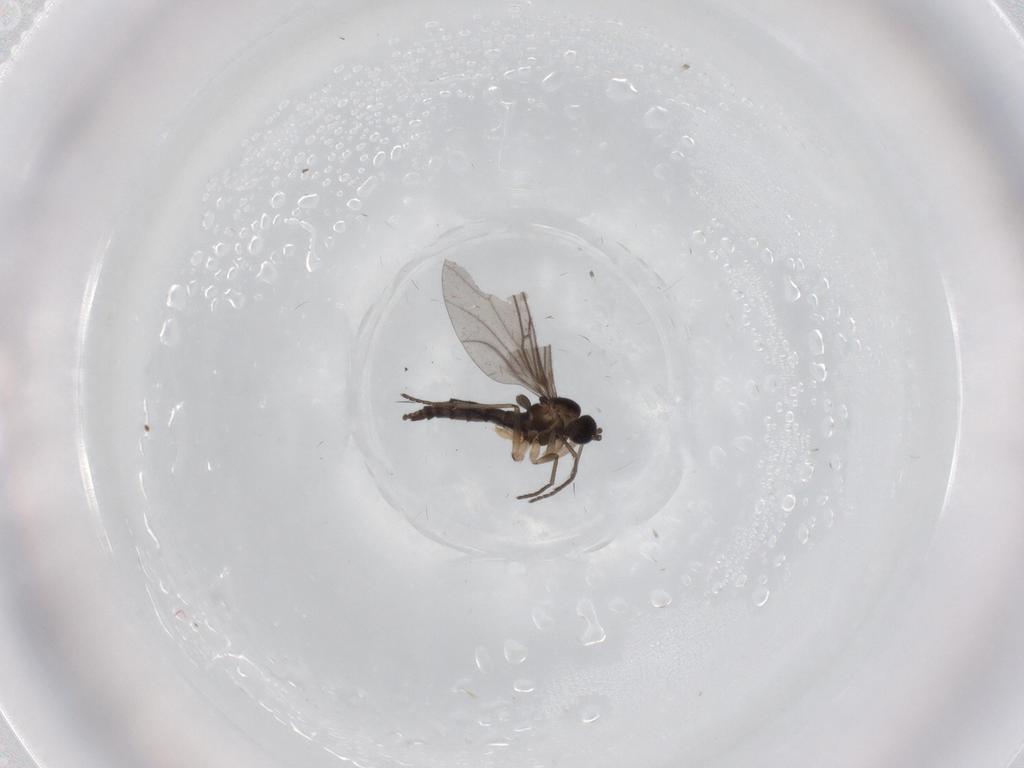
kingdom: Animalia
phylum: Arthropoda
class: Insecta
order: Diptera
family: Sciaridae
